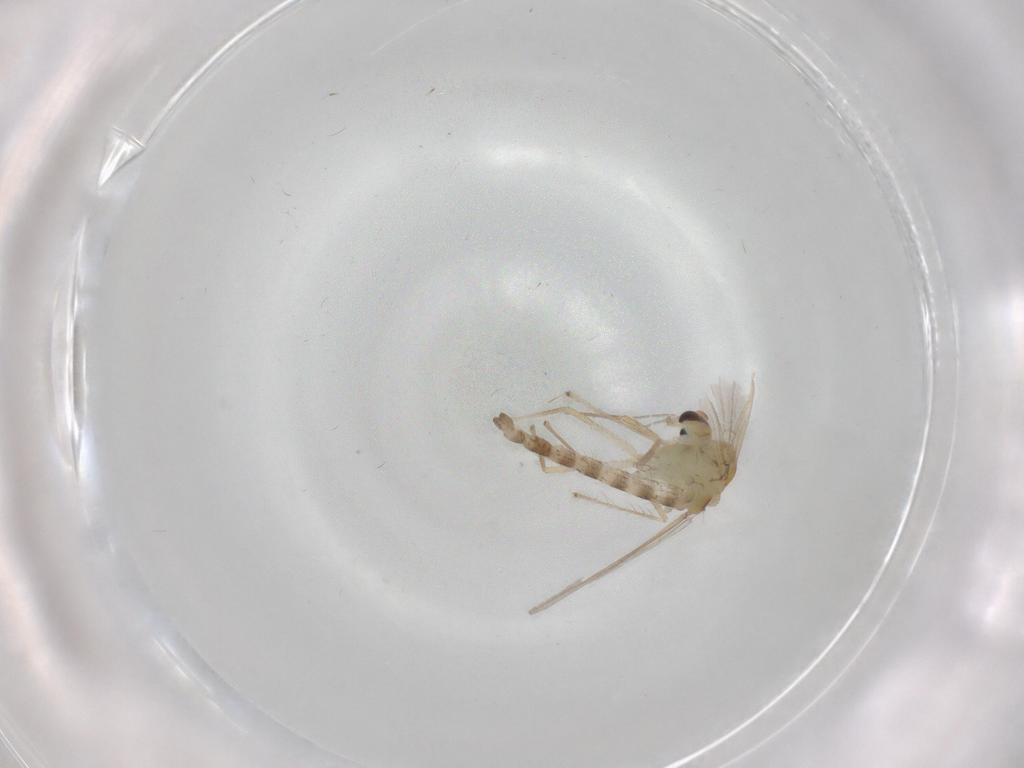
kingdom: Animalia
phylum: Arthropoda
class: Insecta
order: Diptera
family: Chironomidae
